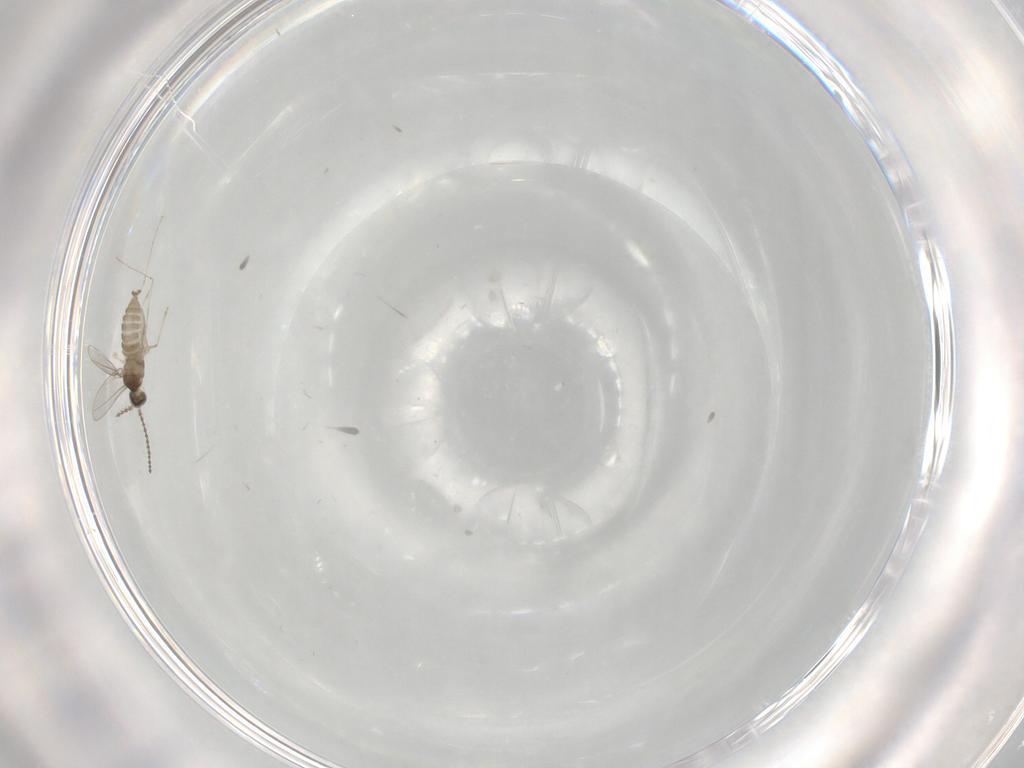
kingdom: Animalia
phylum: Arthropoda
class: Insecta
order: Diptera
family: Cecidomyiidae
